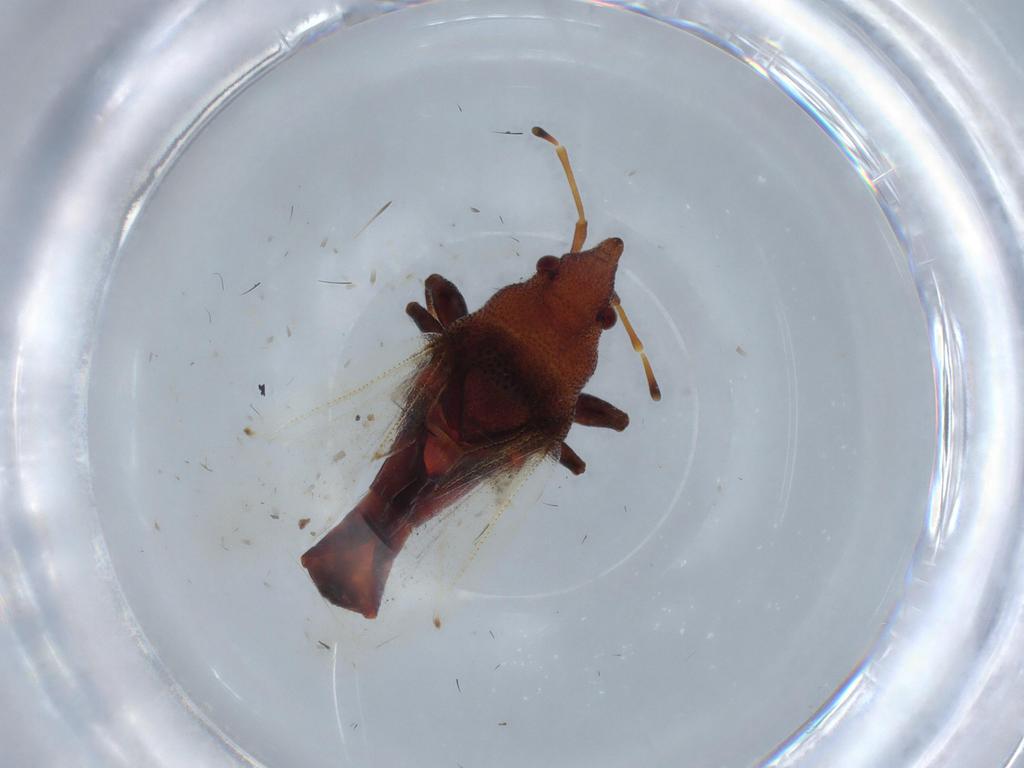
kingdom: Animalia
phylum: Arthropoda
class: Insecta
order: Hemiptera
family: Oxycarenidae
